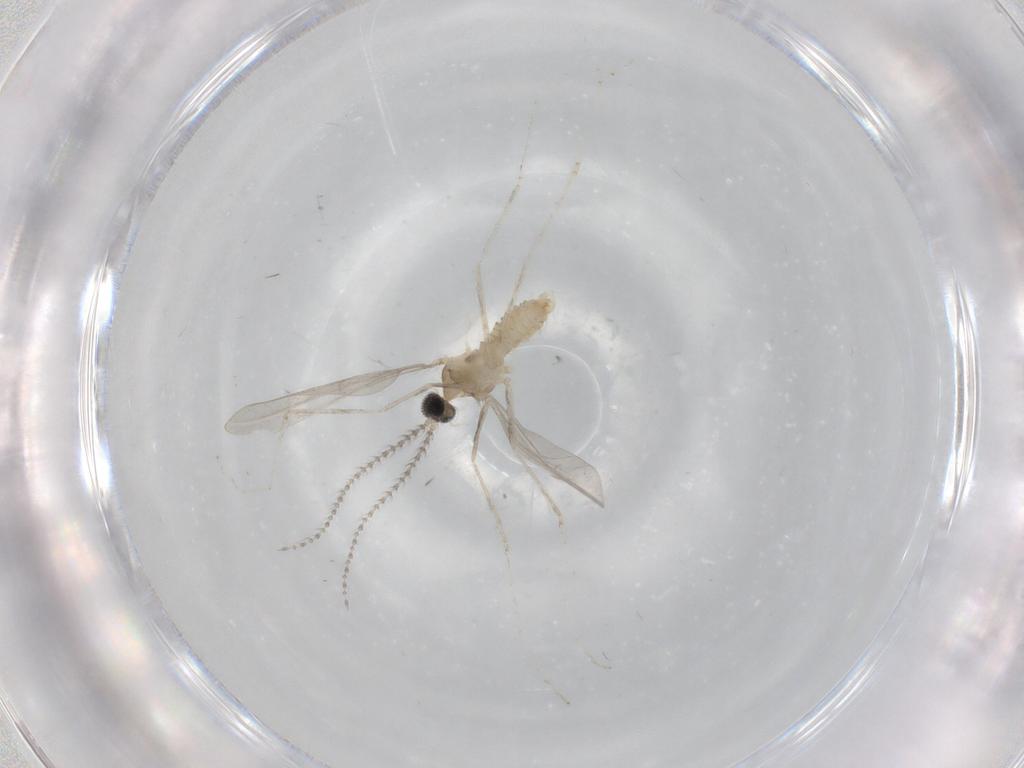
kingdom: Animalia
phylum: Arthropoda
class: Insecta
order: Diptera
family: Cecidomyiidae
